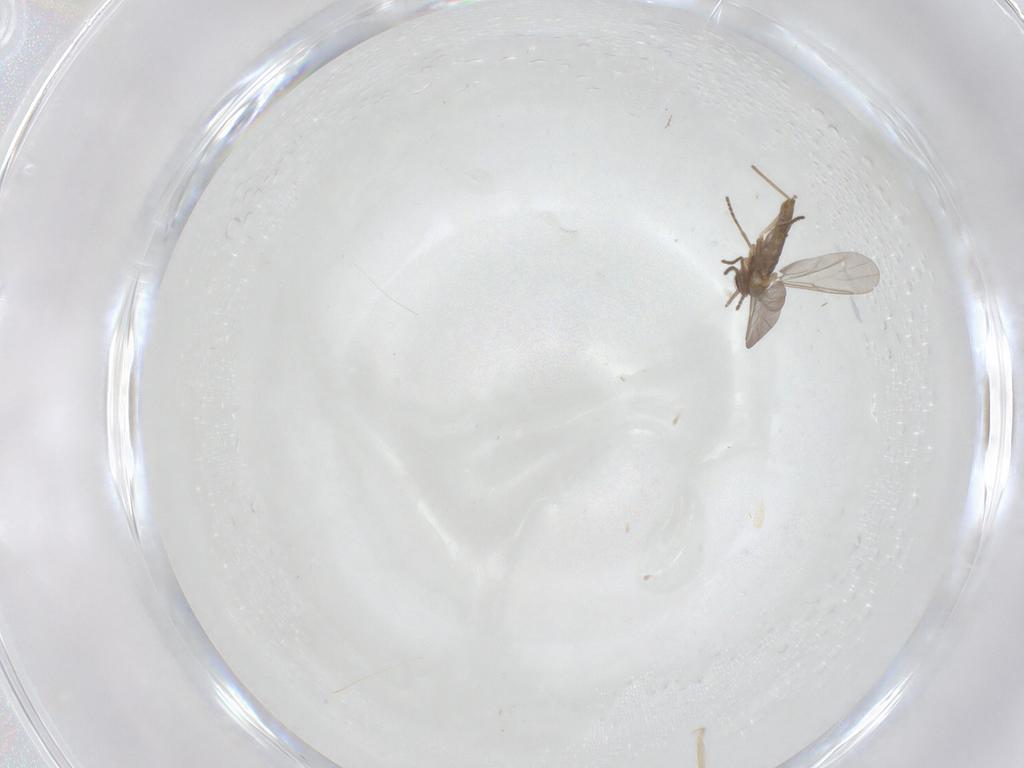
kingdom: Animalia
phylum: Arthropoda
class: Insecta
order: Diptera
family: Cecidomyiidae
